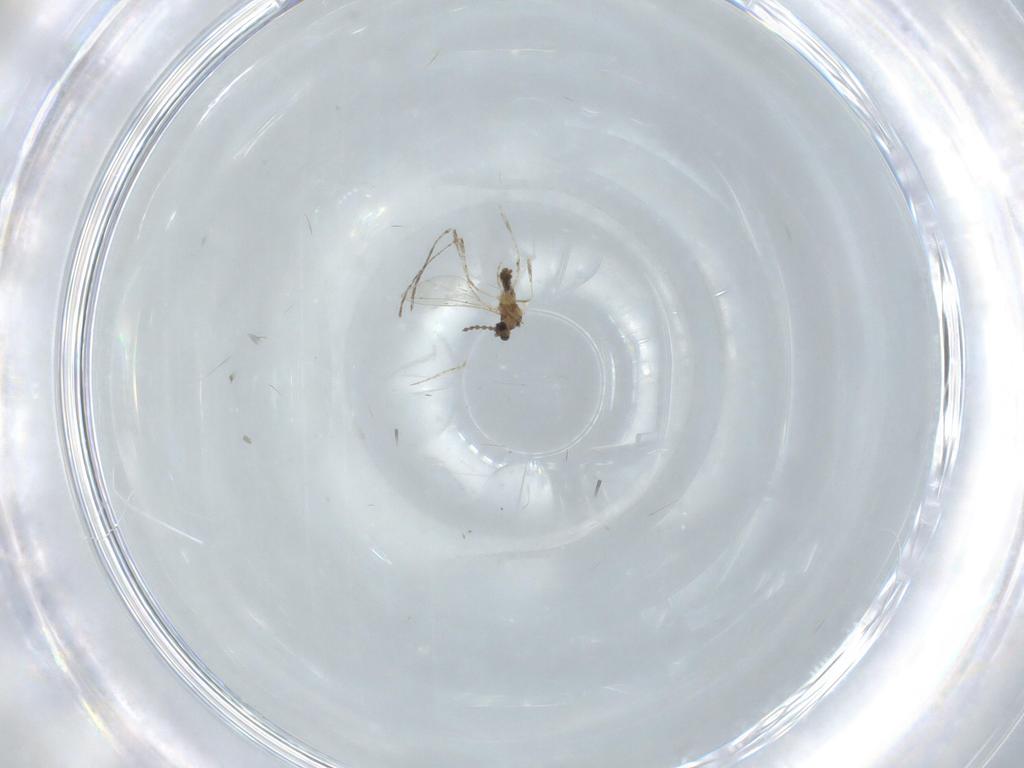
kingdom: Animalia
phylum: Arthropoda
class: Insecta
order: Diptera
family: Chironomidae
